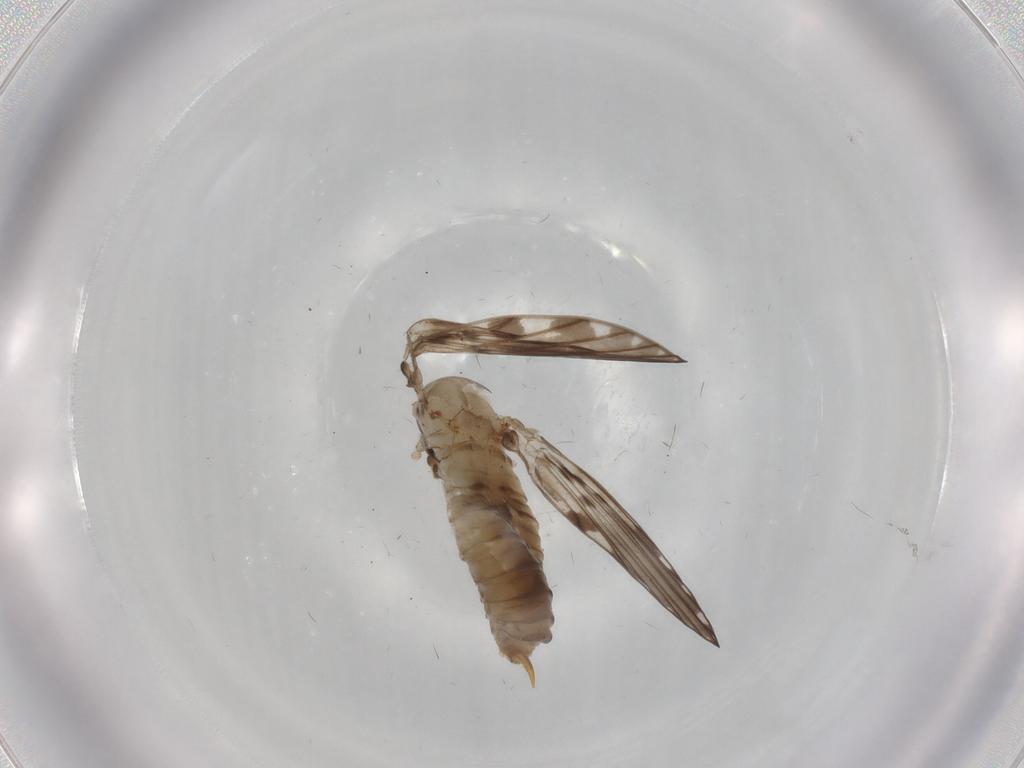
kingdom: Animalia
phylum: Arthropoda
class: Insecta
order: Diptera
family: Psychodidae
